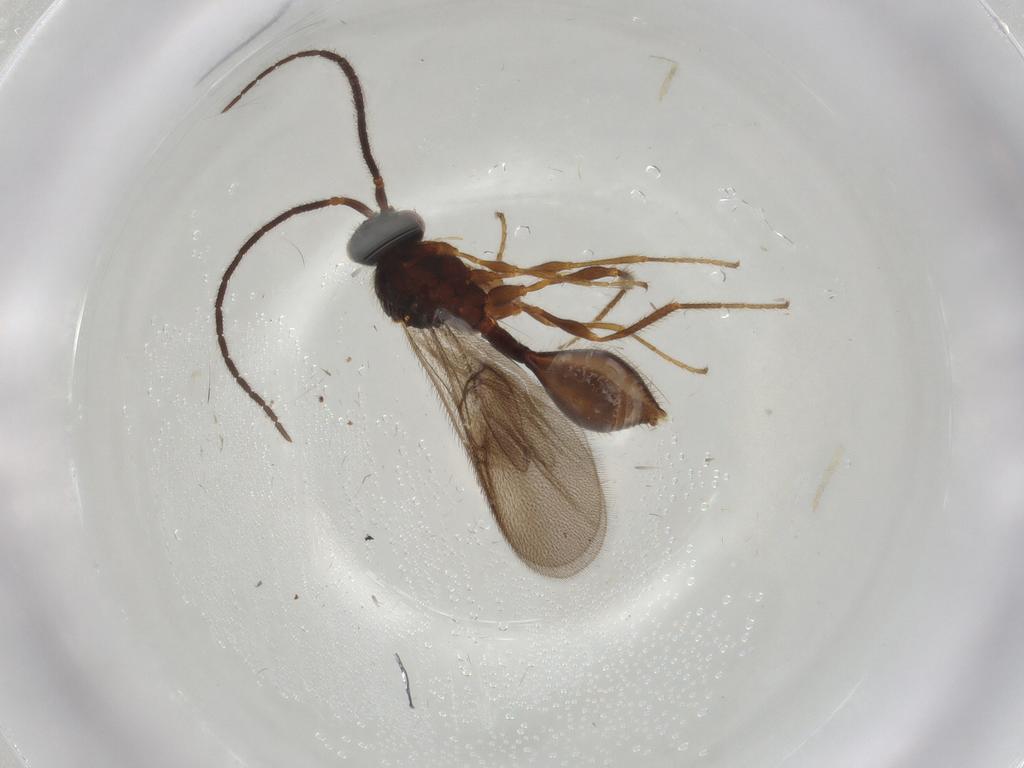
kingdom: Animalia
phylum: Arthropoda
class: Insecta
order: Hymenoptera
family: Diapriidae
